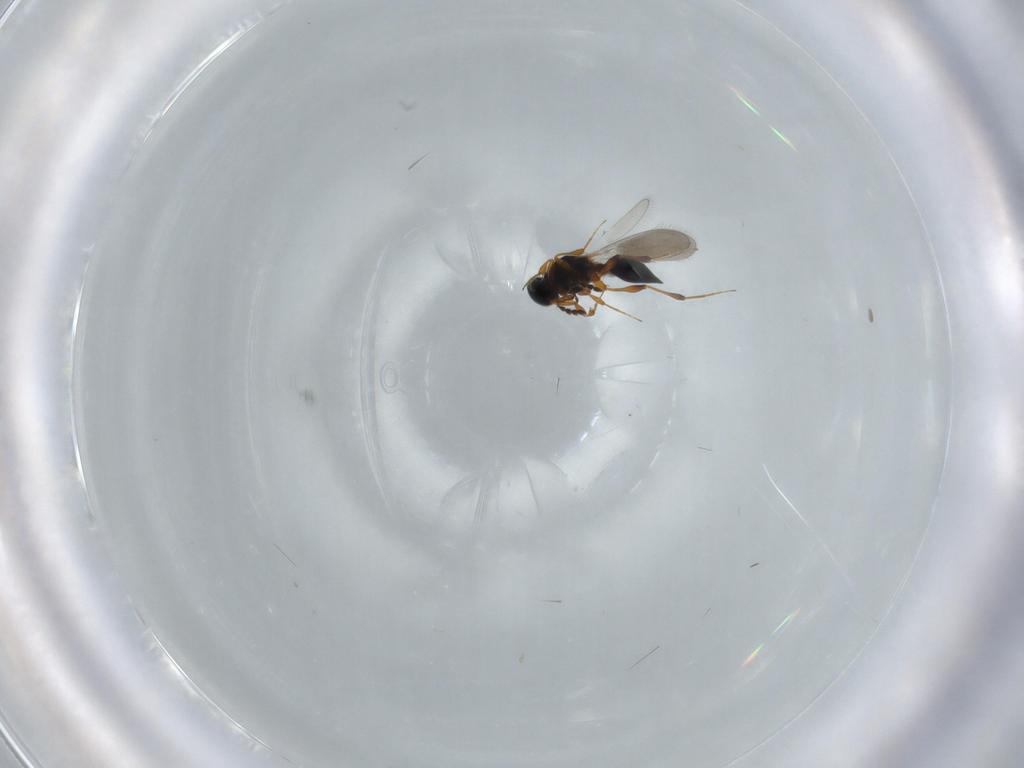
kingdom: Animalia
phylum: Arthropoda
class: Insecta
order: Hymenoptera
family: Platygastridae
